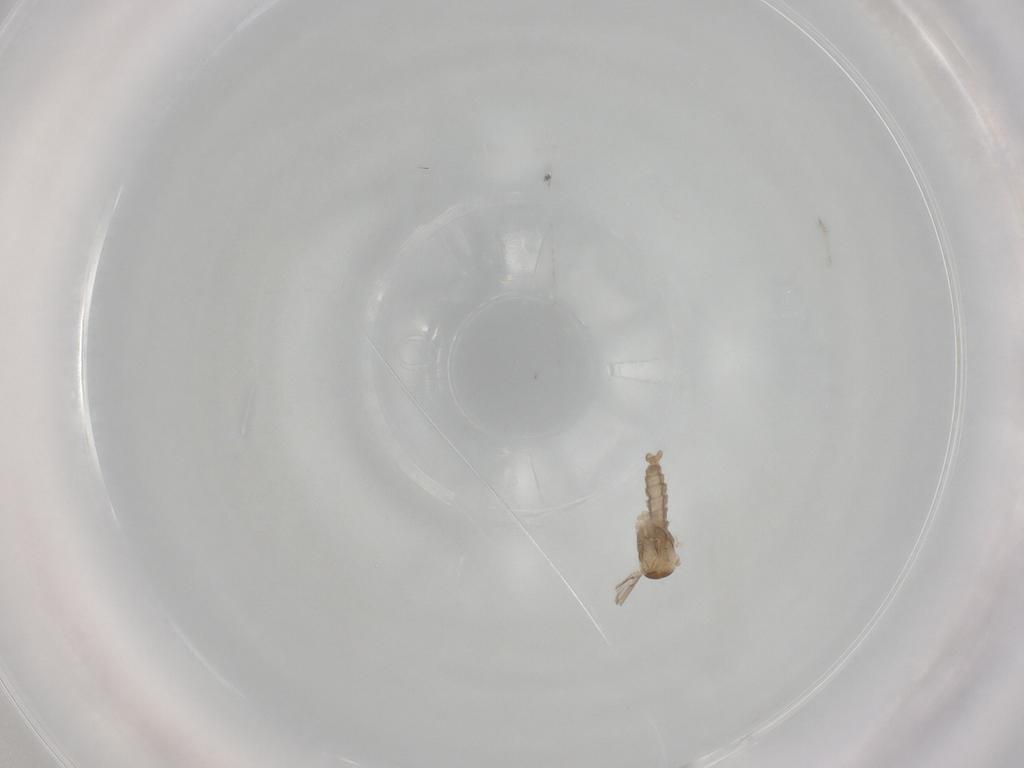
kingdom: Animalia
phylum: Arthropoda
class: Insecta
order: Diptera
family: Cecidomyiidae
